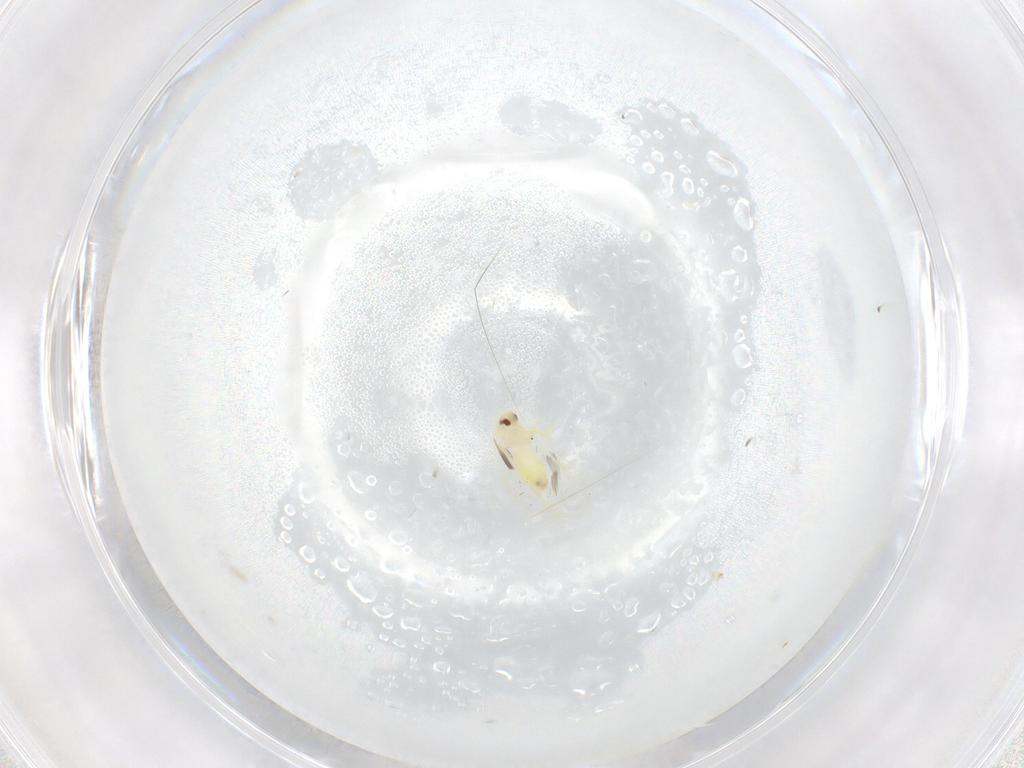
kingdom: Animalia
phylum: Arthropoda
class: Insecta
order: Hemiptera
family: Aleyrodidae
